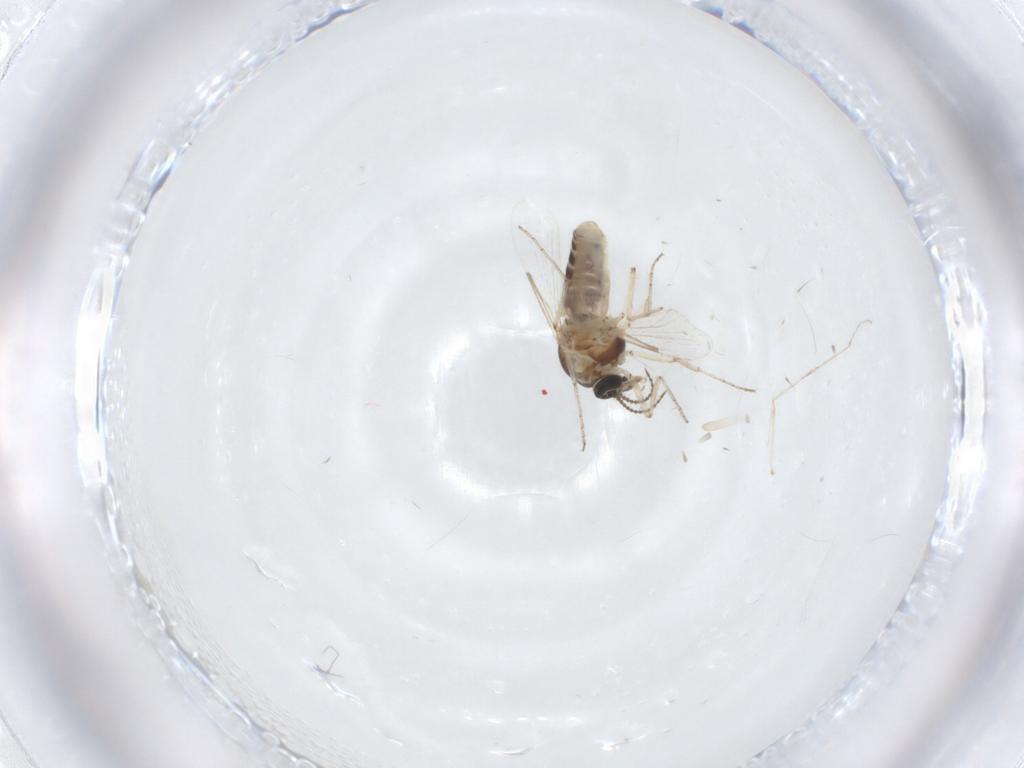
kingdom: Animalia
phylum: Arthropoda
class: Insecta
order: Diptera
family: Ceratopogonidae
